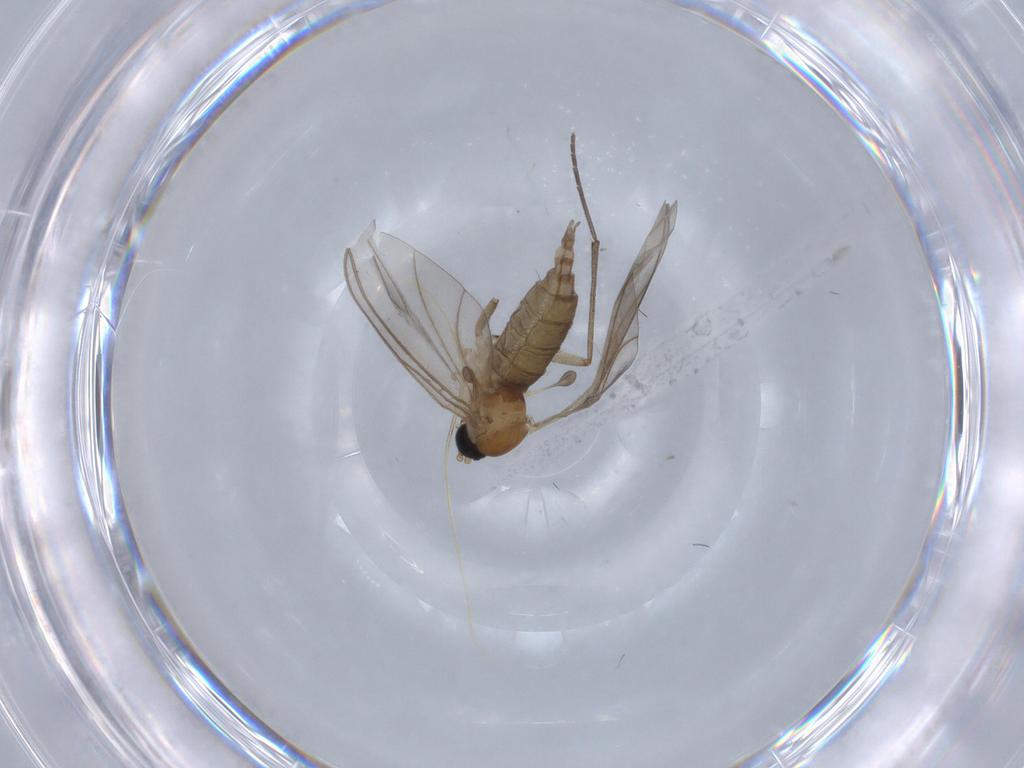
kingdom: Animalia
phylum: Arthropoda
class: Insecta
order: Diptera
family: Sciaridae
